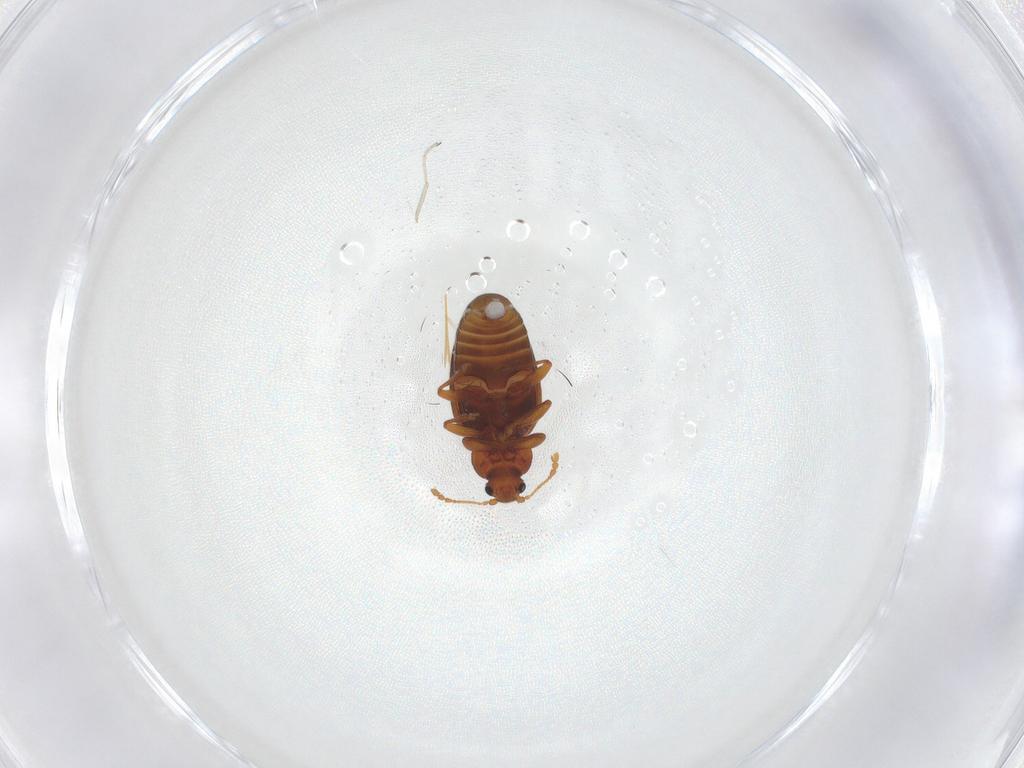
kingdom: Animalia
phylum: Arthropoda
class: Insecta
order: Coleoptera
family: Latridiidae
